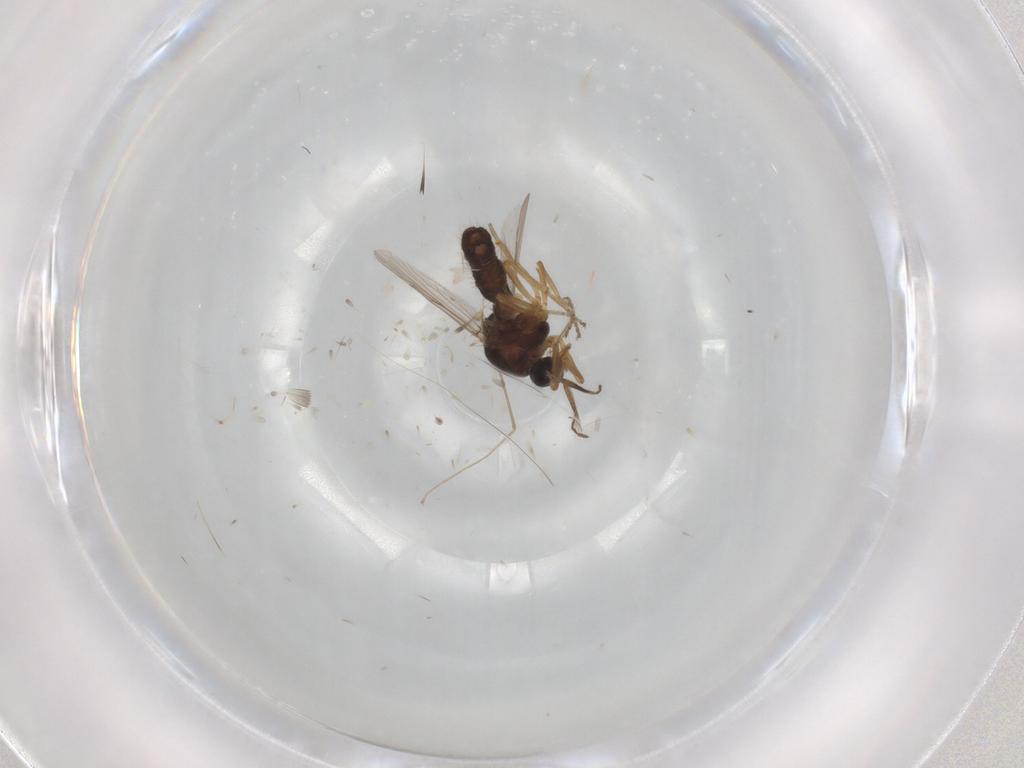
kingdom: Animalia
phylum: Arthropoda
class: Insecta
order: Diptera
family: Ceratopogonidae
